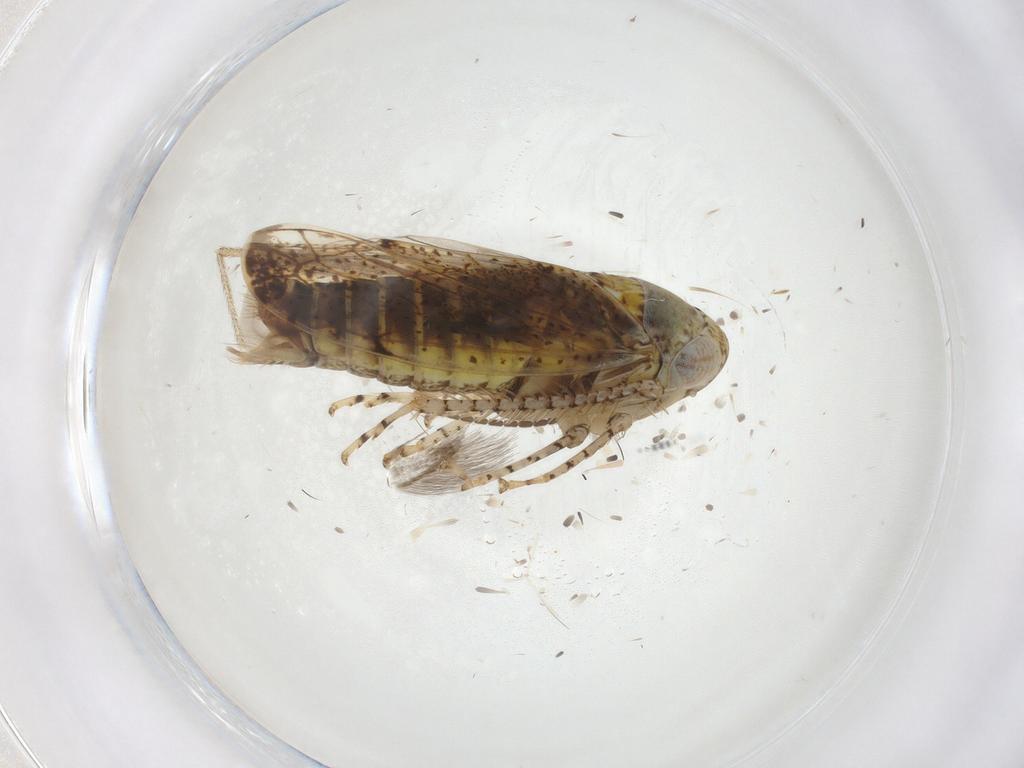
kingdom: Animalia
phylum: Arthropoda
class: Insecta
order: Hemiptera
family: Cicadellidae
